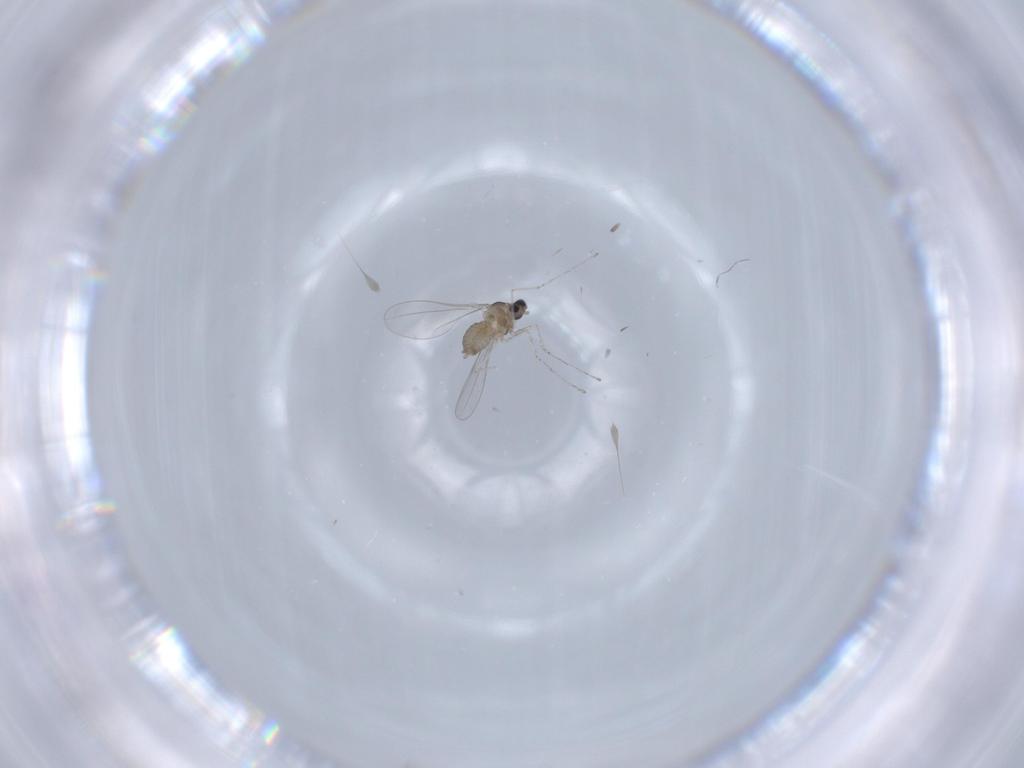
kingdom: Animalia
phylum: Arthropoda
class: Insecta
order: Diptera
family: Cecidomyiidae
